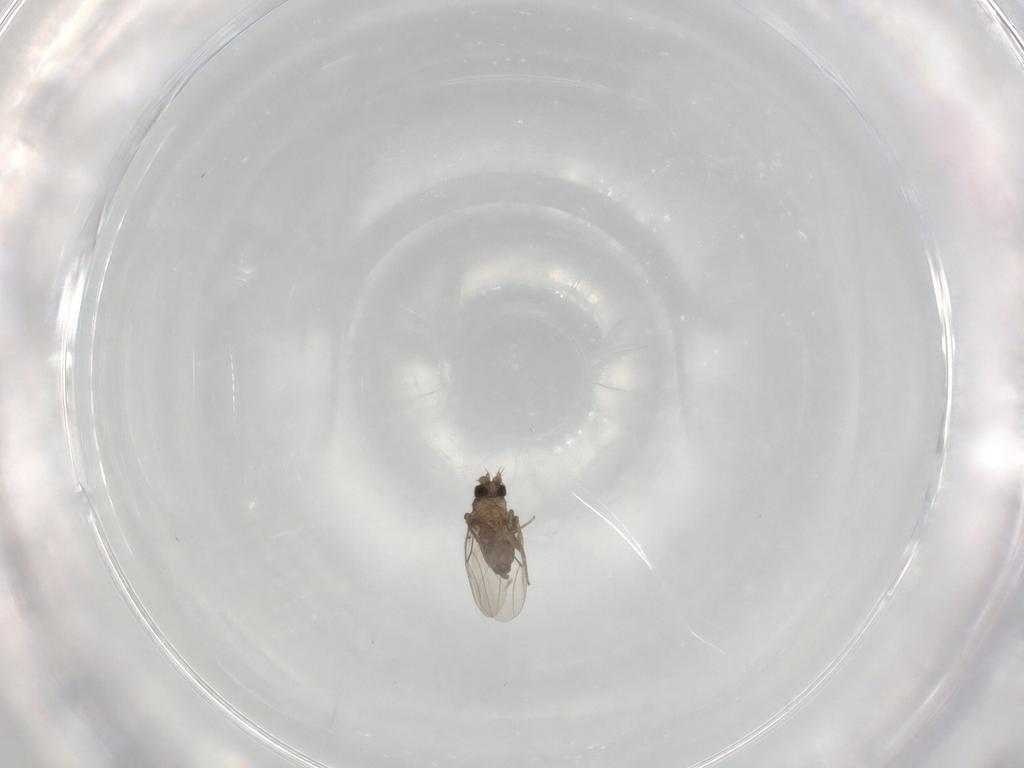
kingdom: Animalia
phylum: Arthropoda
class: Insecta
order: Diptera
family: Phoridae
